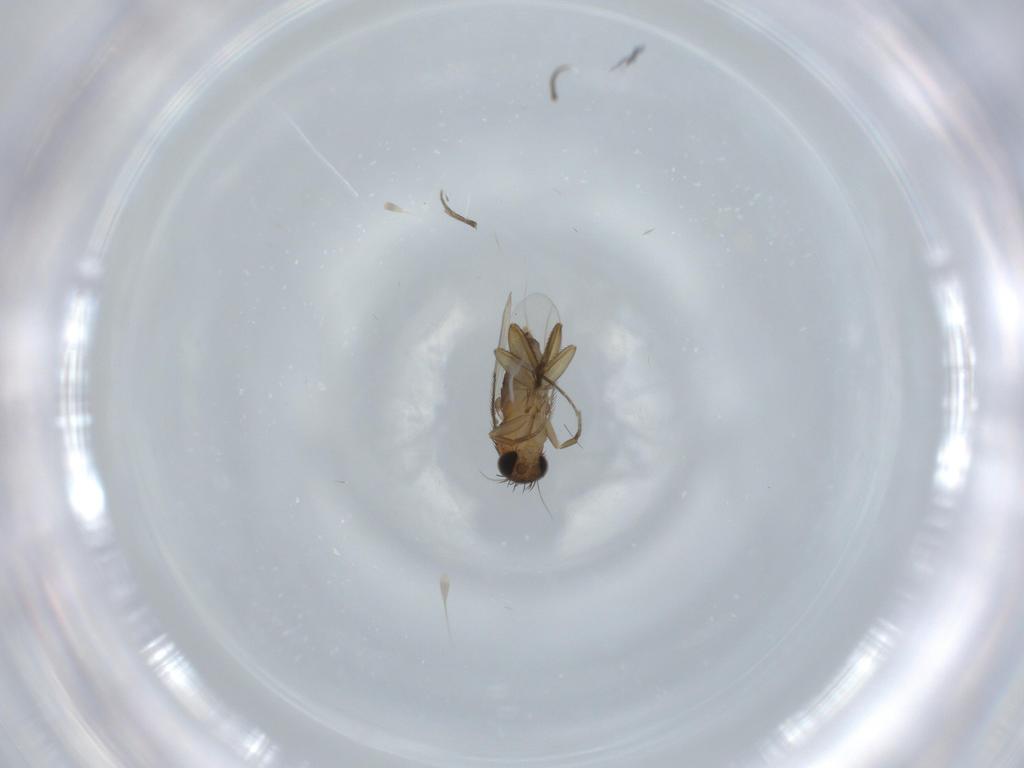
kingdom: Animalia
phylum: Arthropoda
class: Insecta
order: Diptera
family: Phoridae
